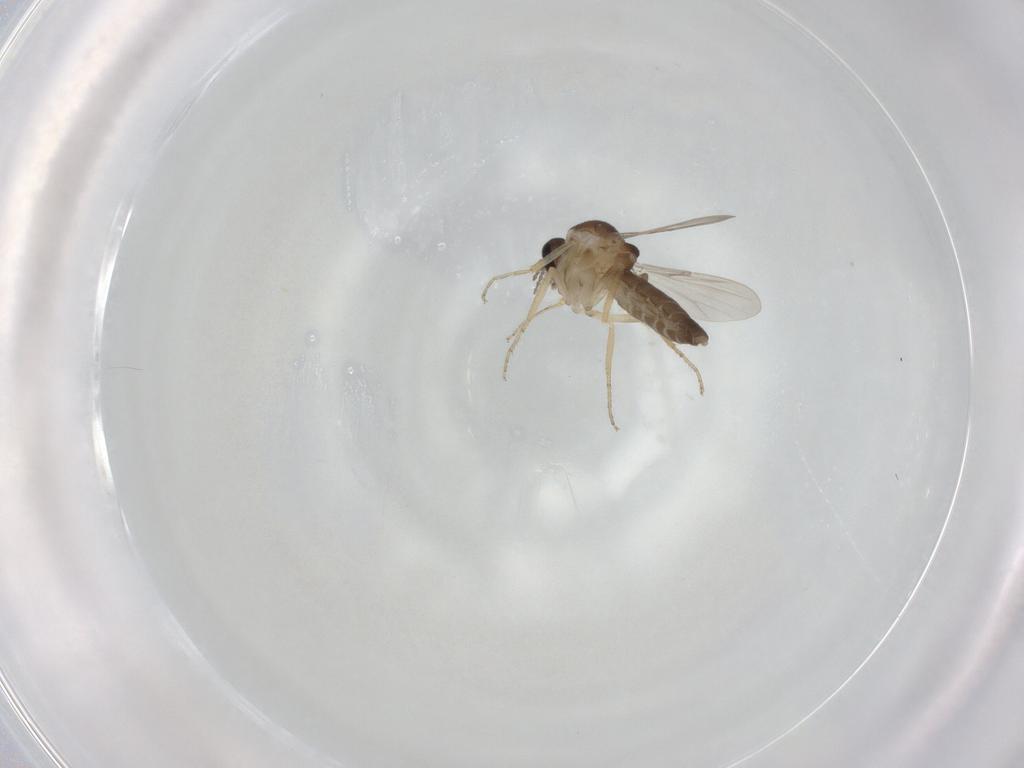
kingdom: Animalia
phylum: Arthropoda
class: Insecta
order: Diptera
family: Ceratopogonidae
